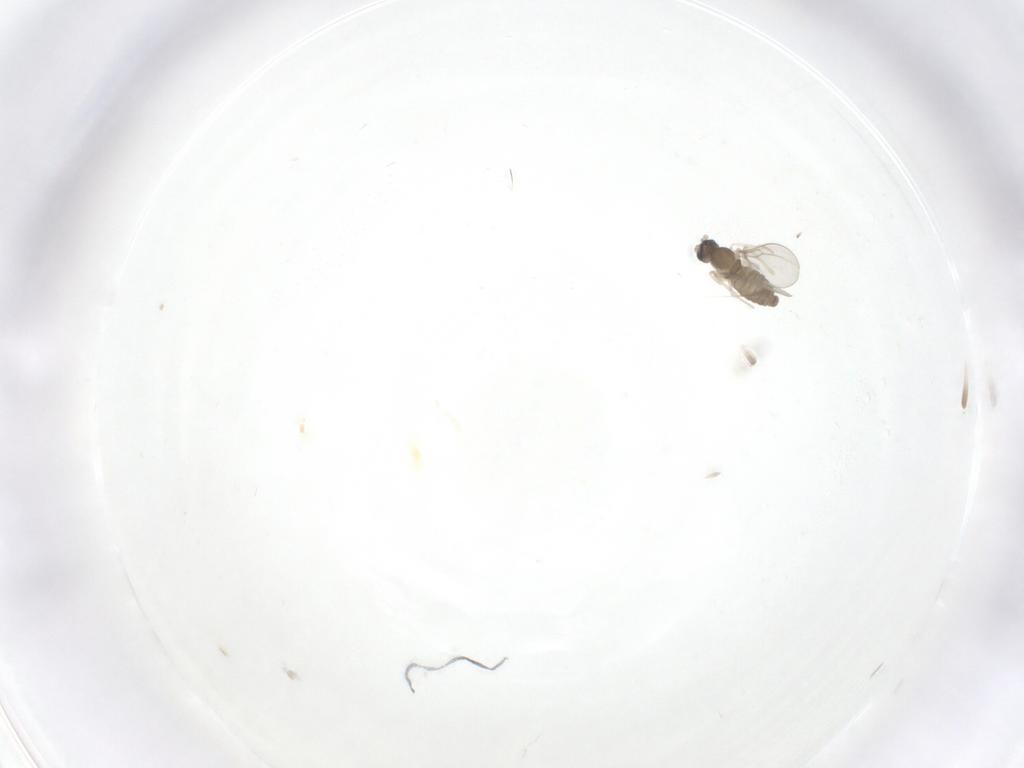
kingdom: Animalia
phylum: Arthropoda
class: Insecta
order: Diptera
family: Cecidomyiidae
